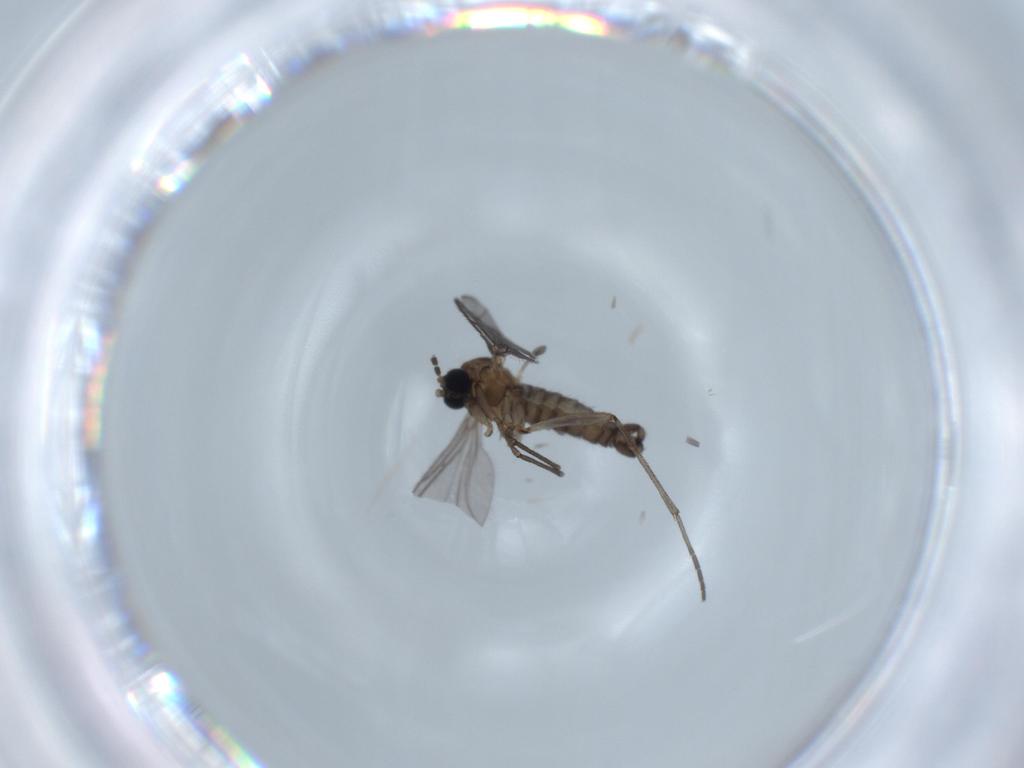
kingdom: Animalia
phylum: Arthropoda
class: Insecta
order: Diptera
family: Sciaridae
